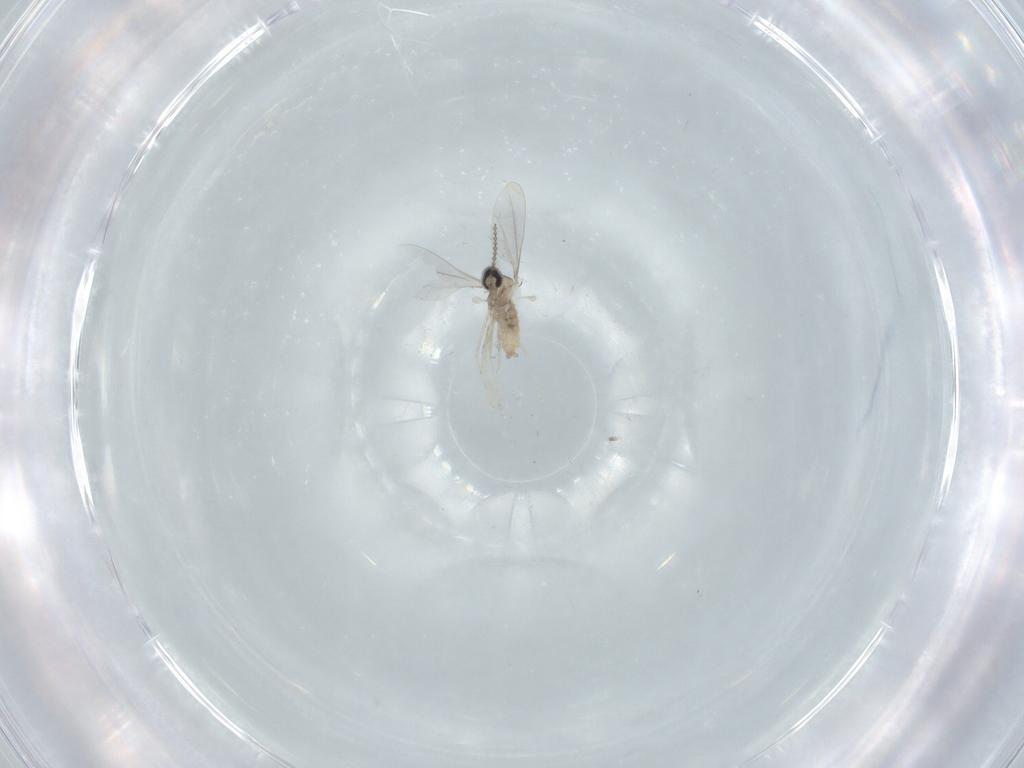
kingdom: Animalia
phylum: Arthropoda
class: Insecta
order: Diptera
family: Cecidomyiidae
